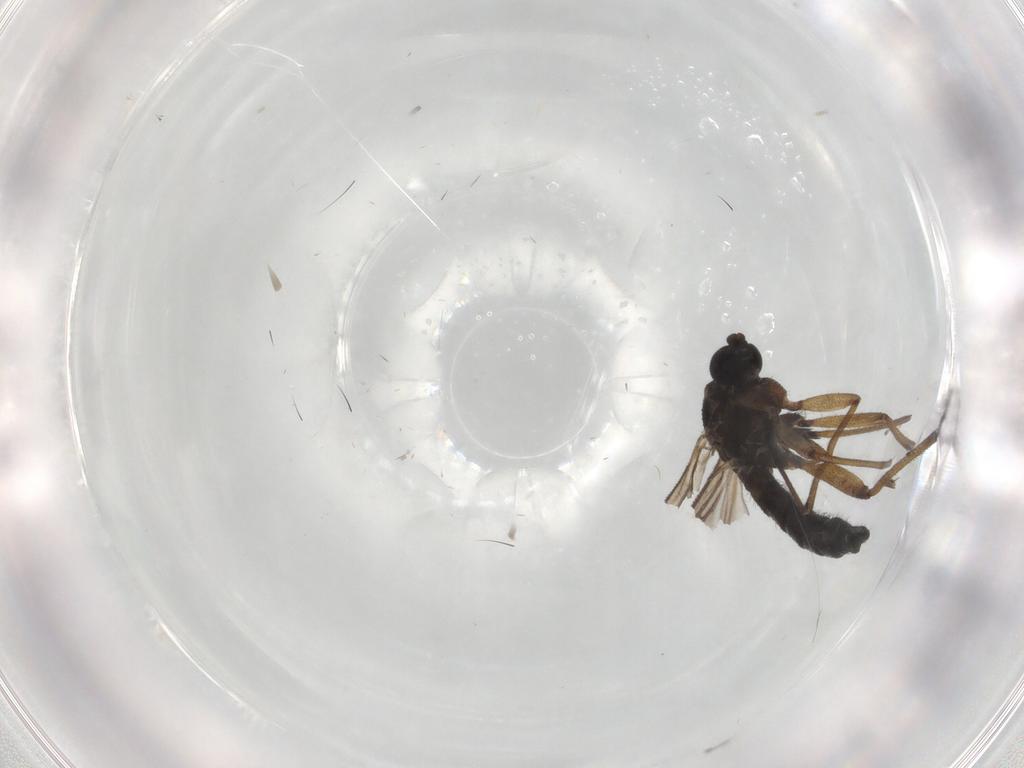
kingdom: Animalia
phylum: Arthropoda
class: Insecta
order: Diptera
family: Sciaridae
